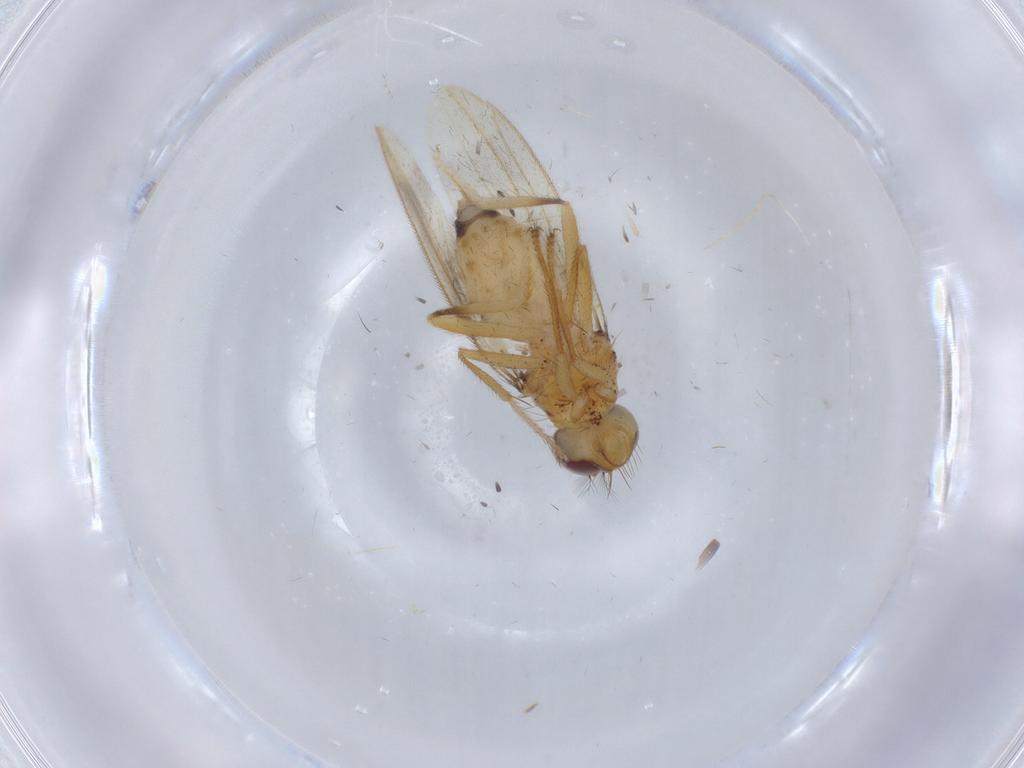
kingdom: Animalia
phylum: Arthropoda
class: Insecta
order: Diptera
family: Periscelididae
